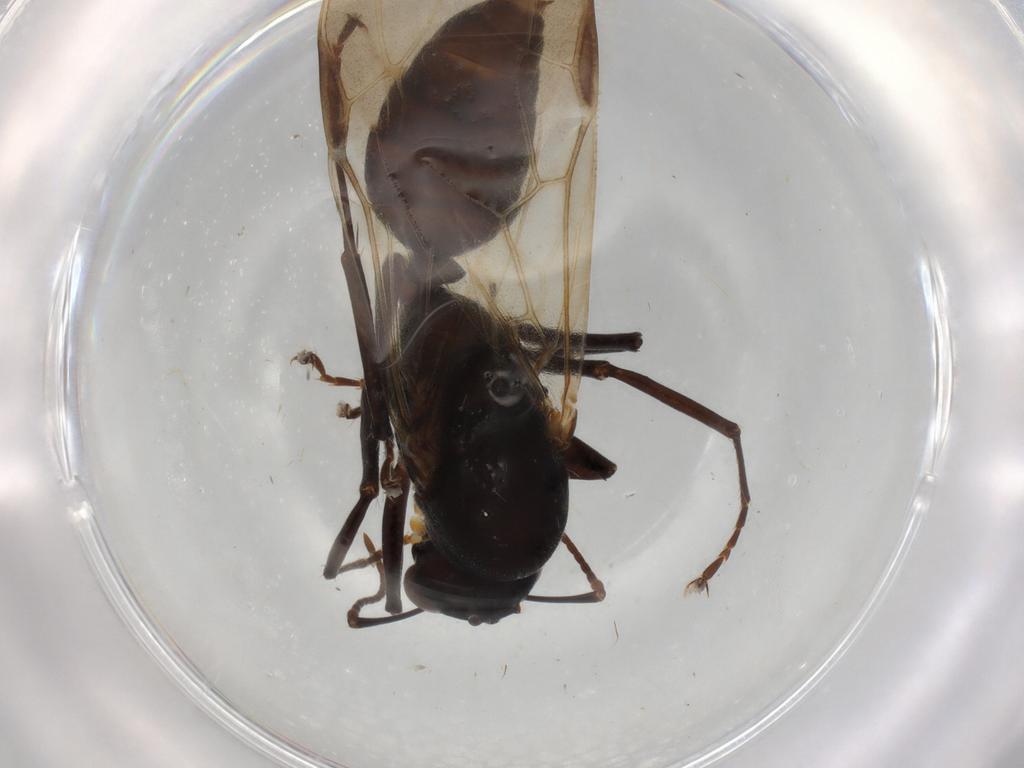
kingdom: Animalia
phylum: Arthropoda
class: Insecta
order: Hymenoptera
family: Formicidae
